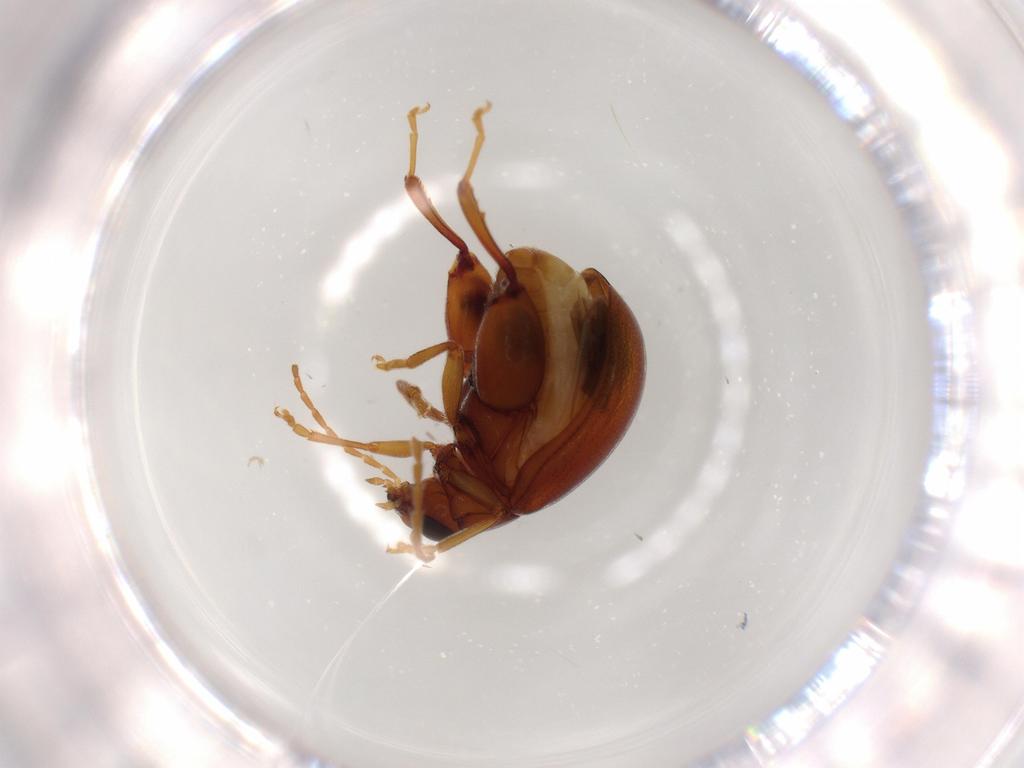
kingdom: Animalia
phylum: Arthropoda
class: Insecta
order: Coleoptera
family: Chrysomelidae
